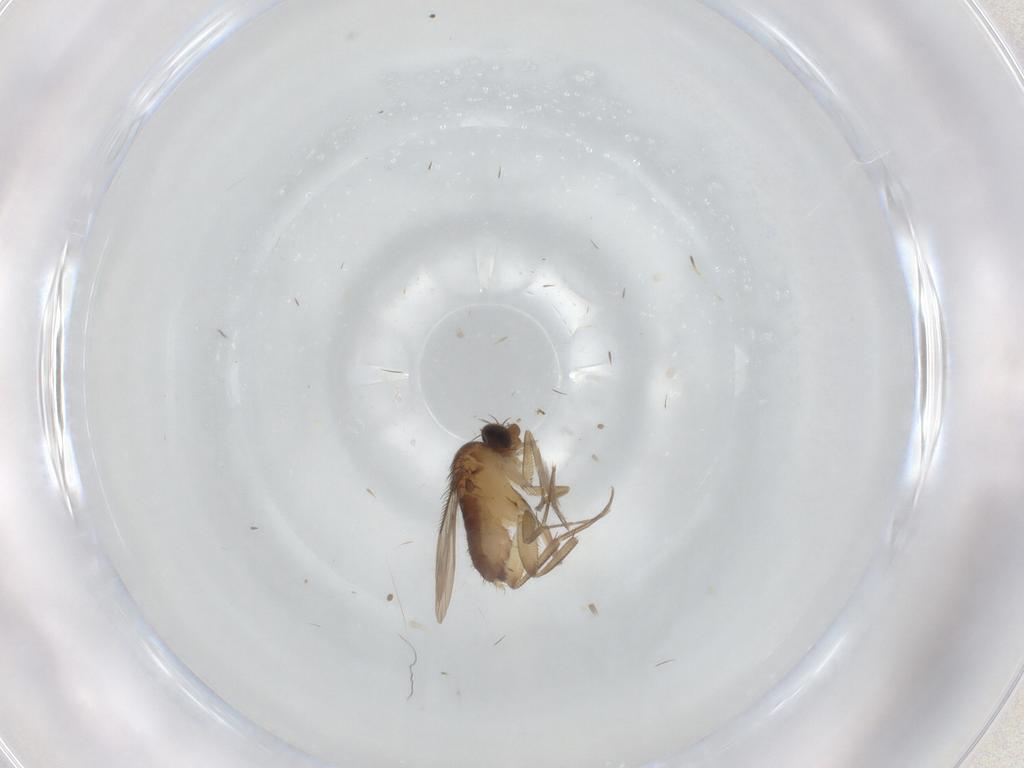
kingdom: Animalia
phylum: Arthropoda
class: Insecta
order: Diptera
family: Phoridae
